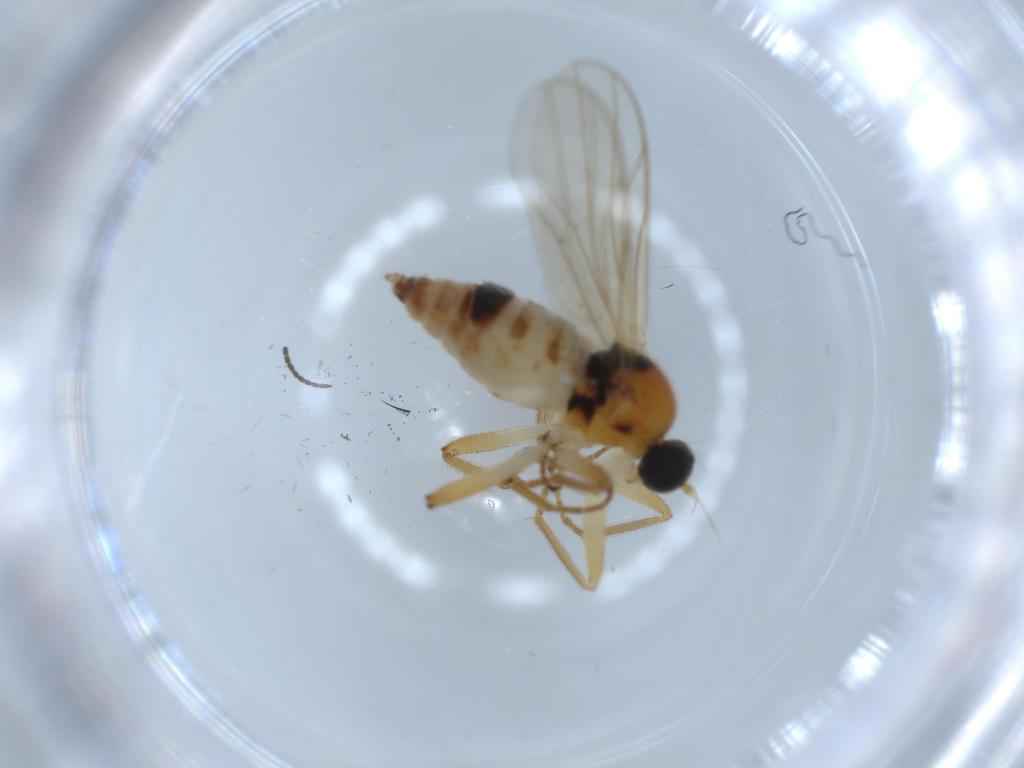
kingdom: Animalia
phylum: Arthropoda
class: Insecta
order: Diptera
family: Hybotidae
